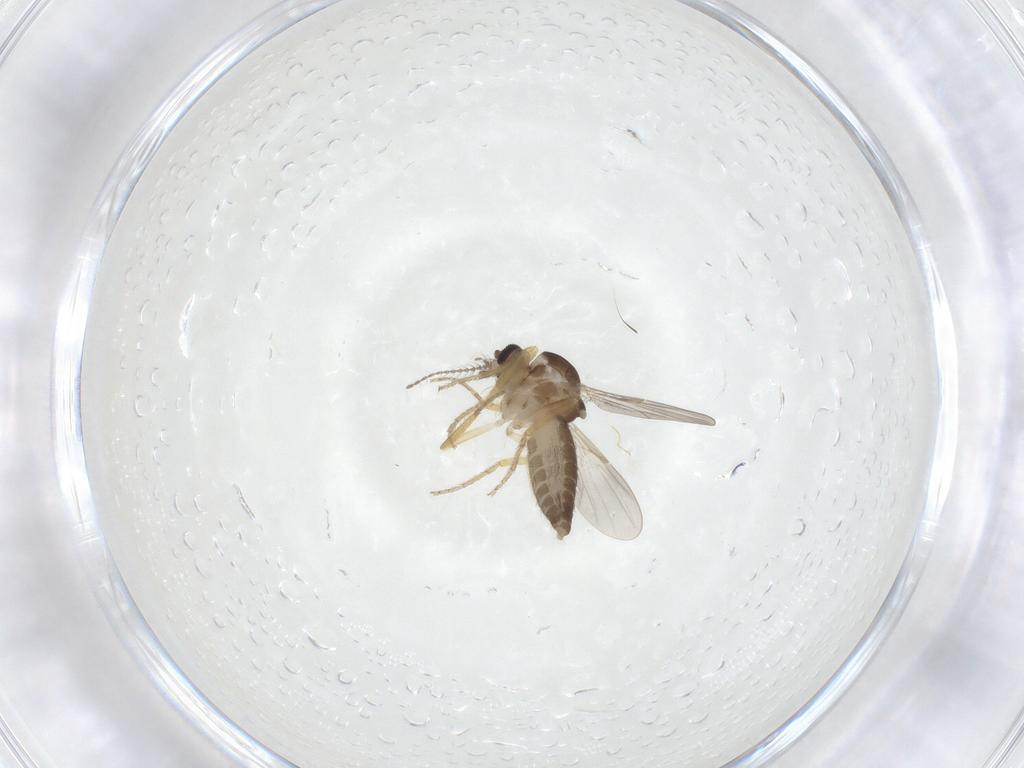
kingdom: Animalia
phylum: Arthropoda
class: Insecta
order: Diptera
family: Ceratopogonidae
